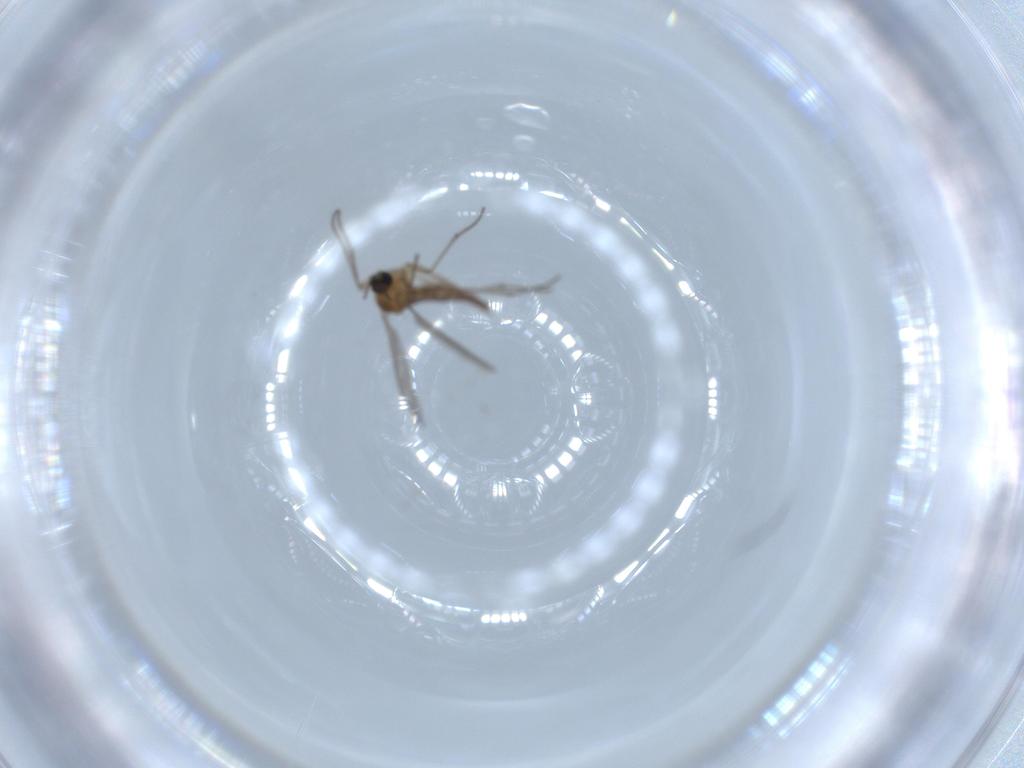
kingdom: Animalia
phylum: Arthropoda
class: Insecta
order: Diptera
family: Sciaridae
